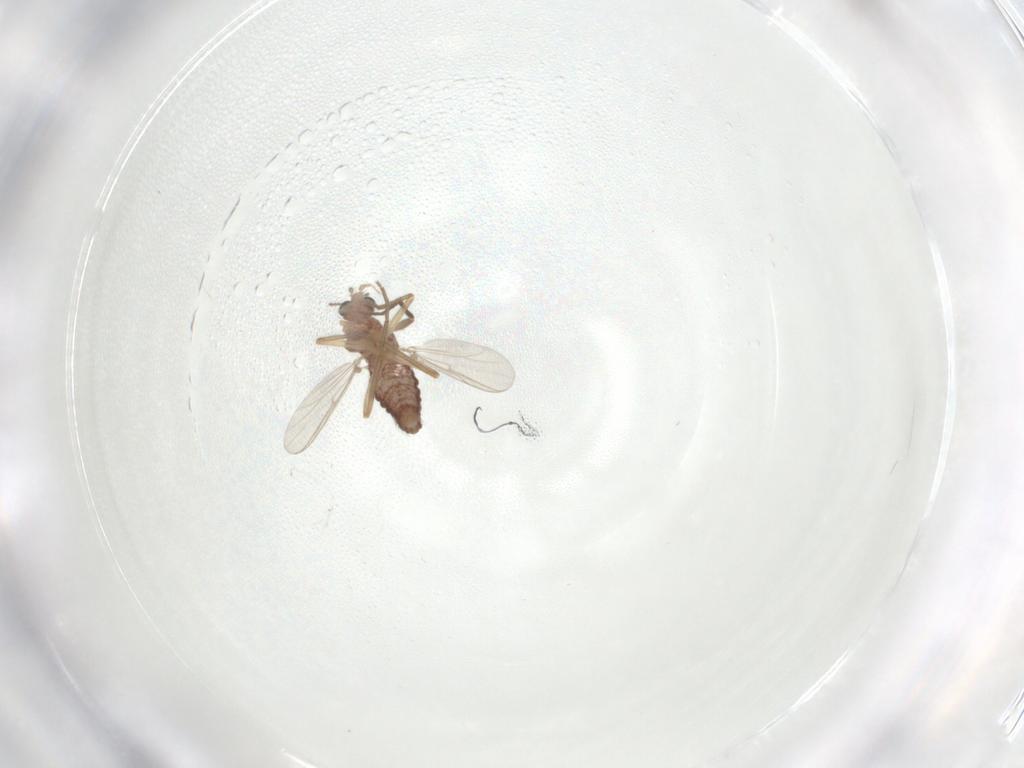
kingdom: Animalia
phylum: Arthropoda
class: Insecta
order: Diptera
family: Chironomidae
